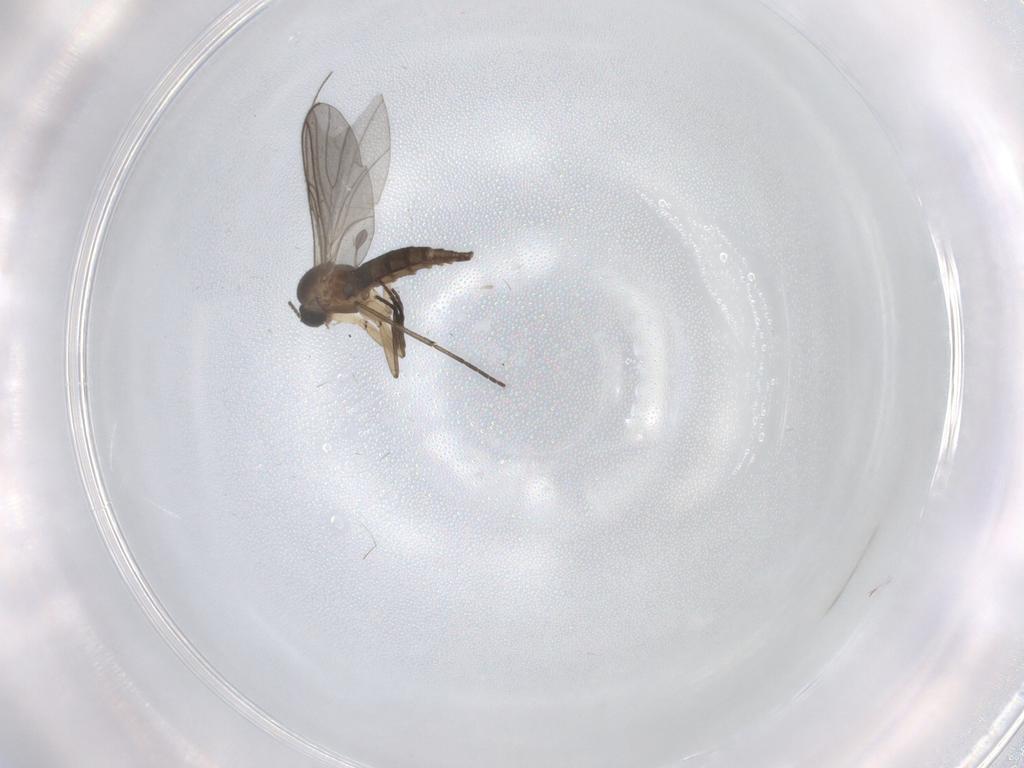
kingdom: Animalia
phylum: Arthropoda
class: Insecta
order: Diptera
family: Sciaridae
